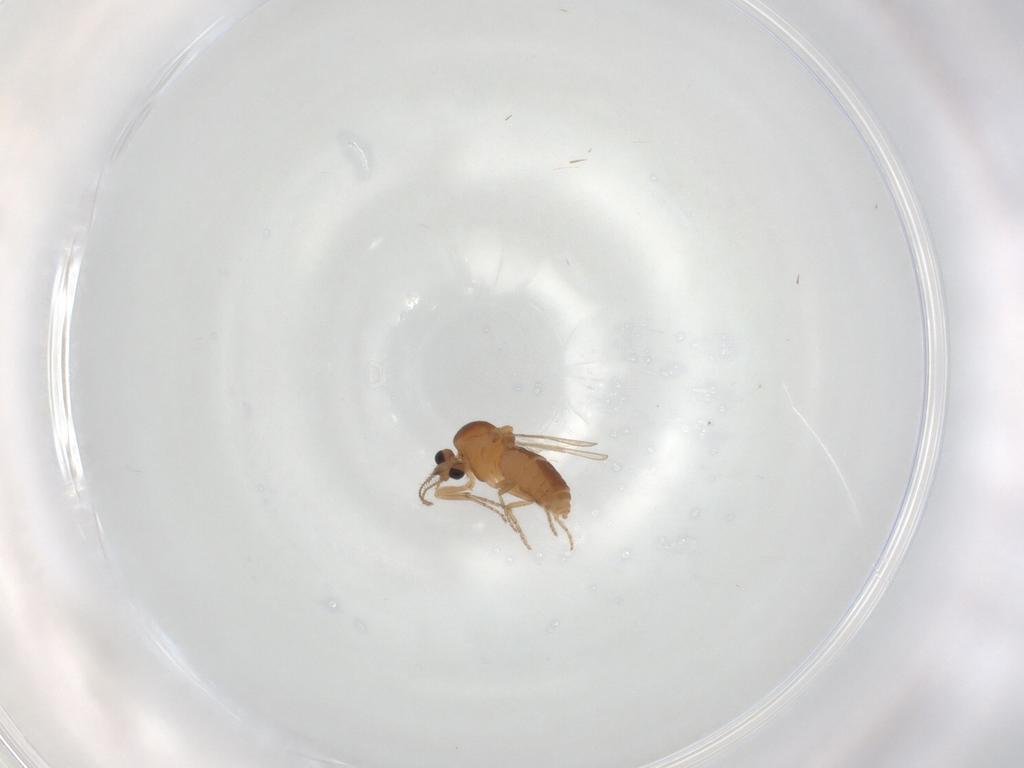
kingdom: Animalia
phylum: Arthropoda
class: Insecta
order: Diptera
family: Ceratopogonidae
